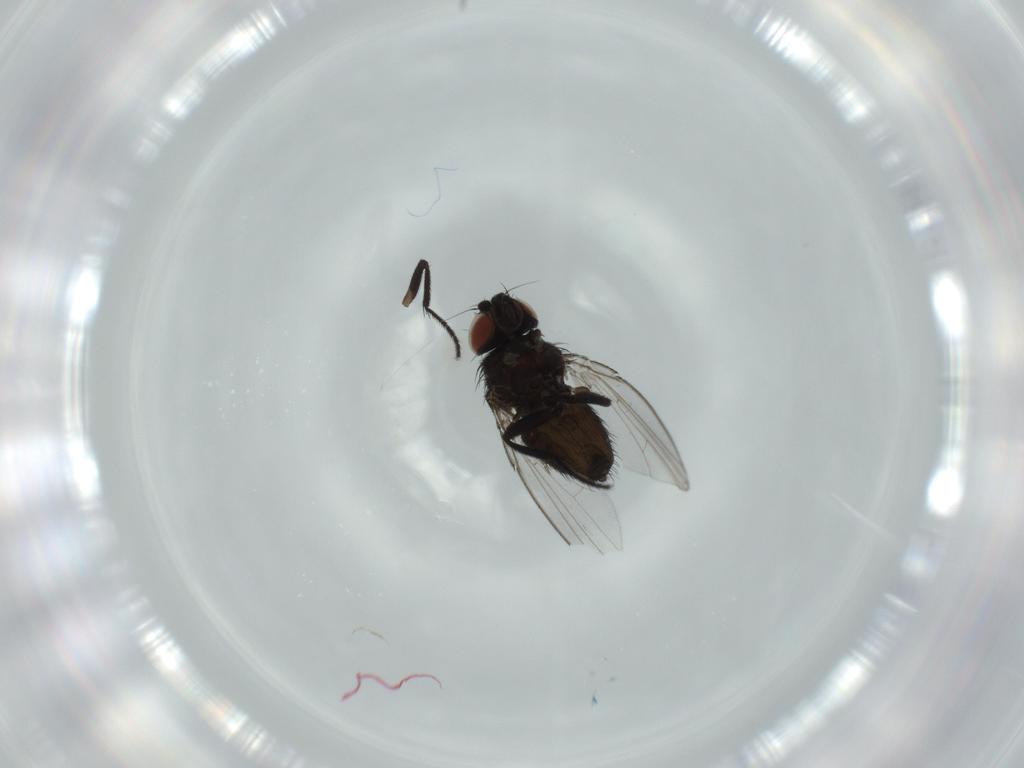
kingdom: Animalia
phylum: Arthropoda
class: Insecta
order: Diptera
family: Milichiidae
